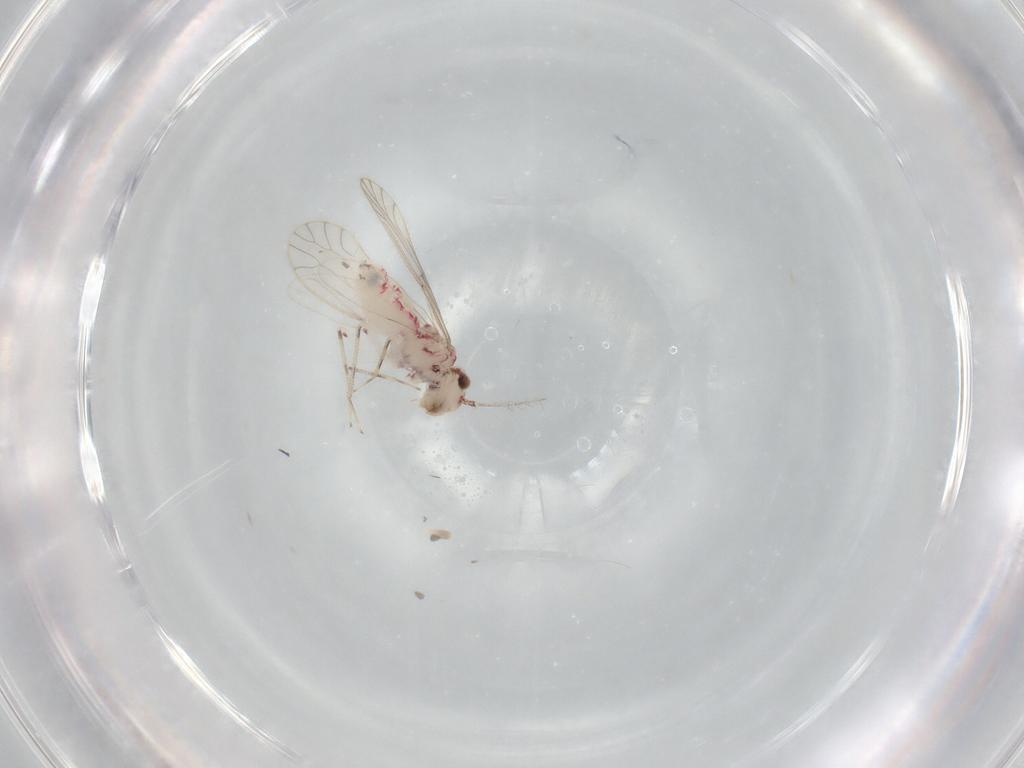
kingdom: Animalia
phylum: Arthropoda
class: Insecta
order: Psocodea
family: Caeciliusidae
